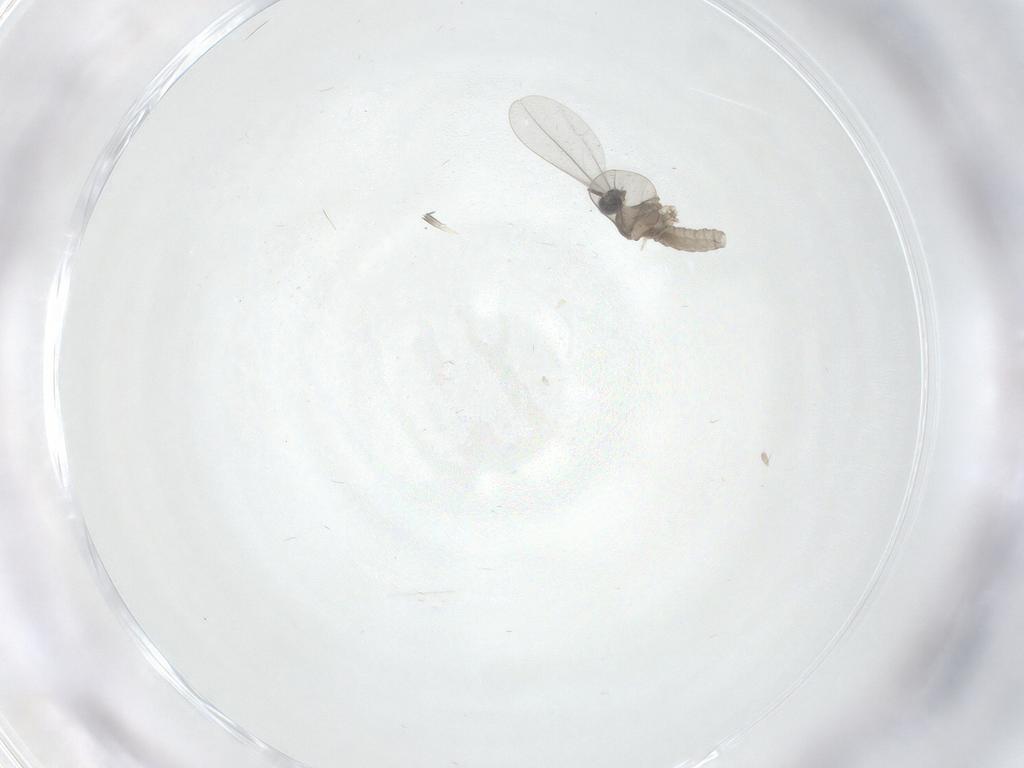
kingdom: Animalia
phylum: Arthropoda
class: Insecta
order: Diptera
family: Cecidomyiidae
